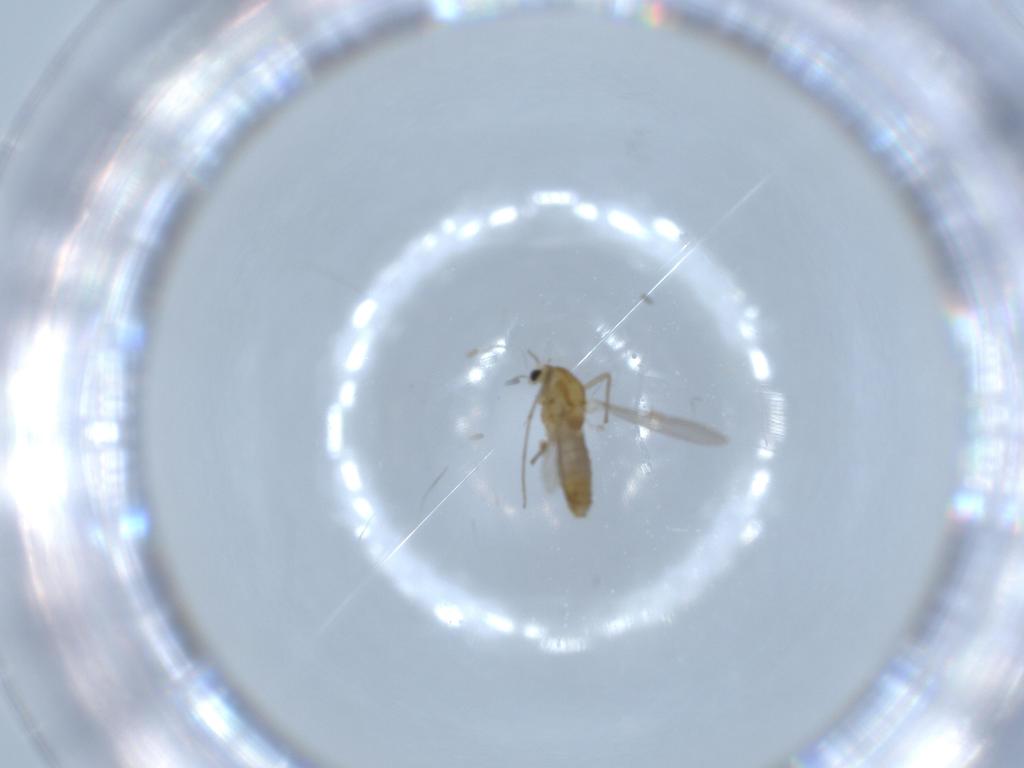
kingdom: Animalia
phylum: Arthropoda
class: Insecta
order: Diptera
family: Chironomidae
